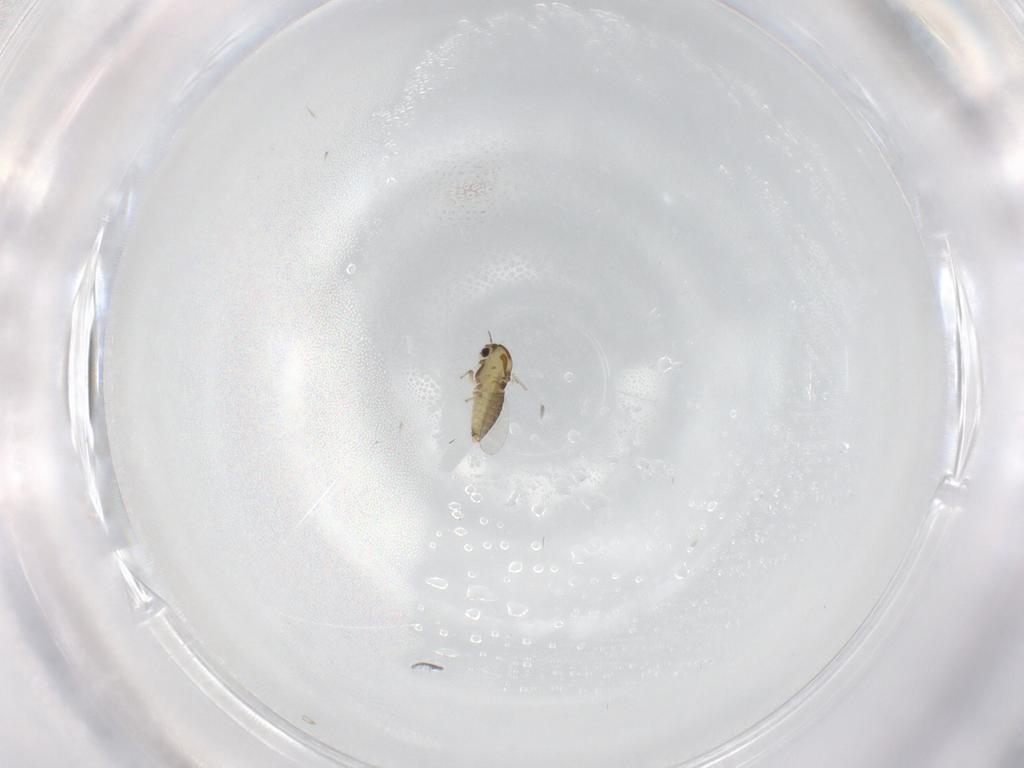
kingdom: Animalia
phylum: Arthropoda
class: Insecta
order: Diptera
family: Chironomidae
